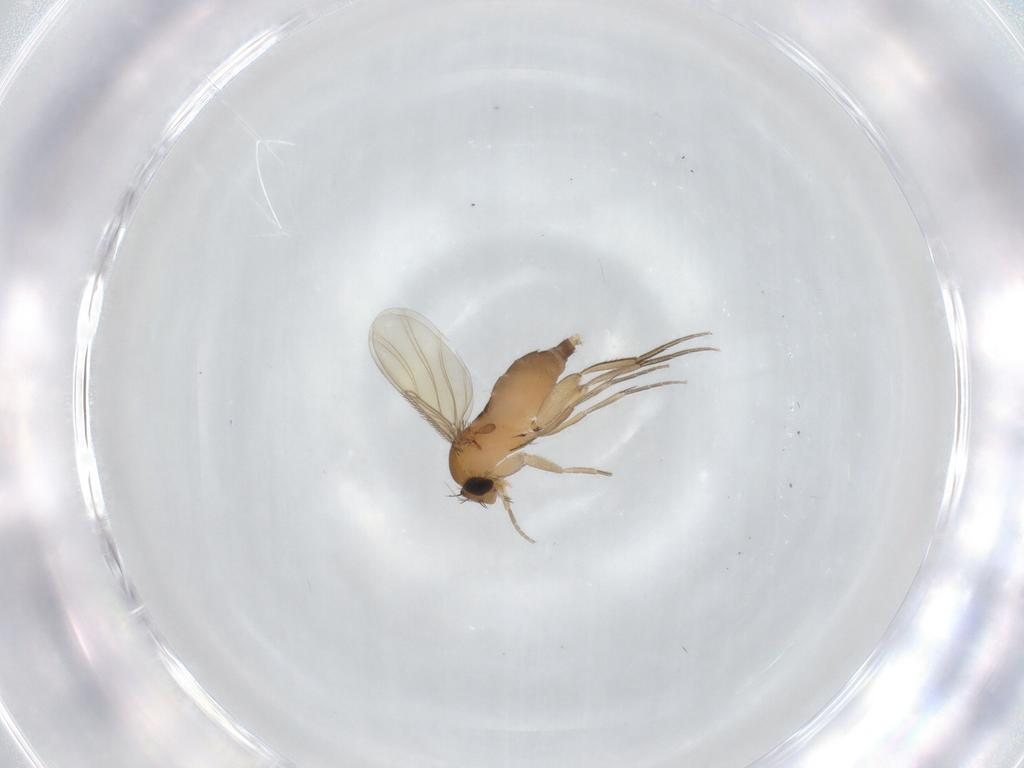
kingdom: Animalia
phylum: Arthropoda
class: Insecta
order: Diptera
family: Phoridae
